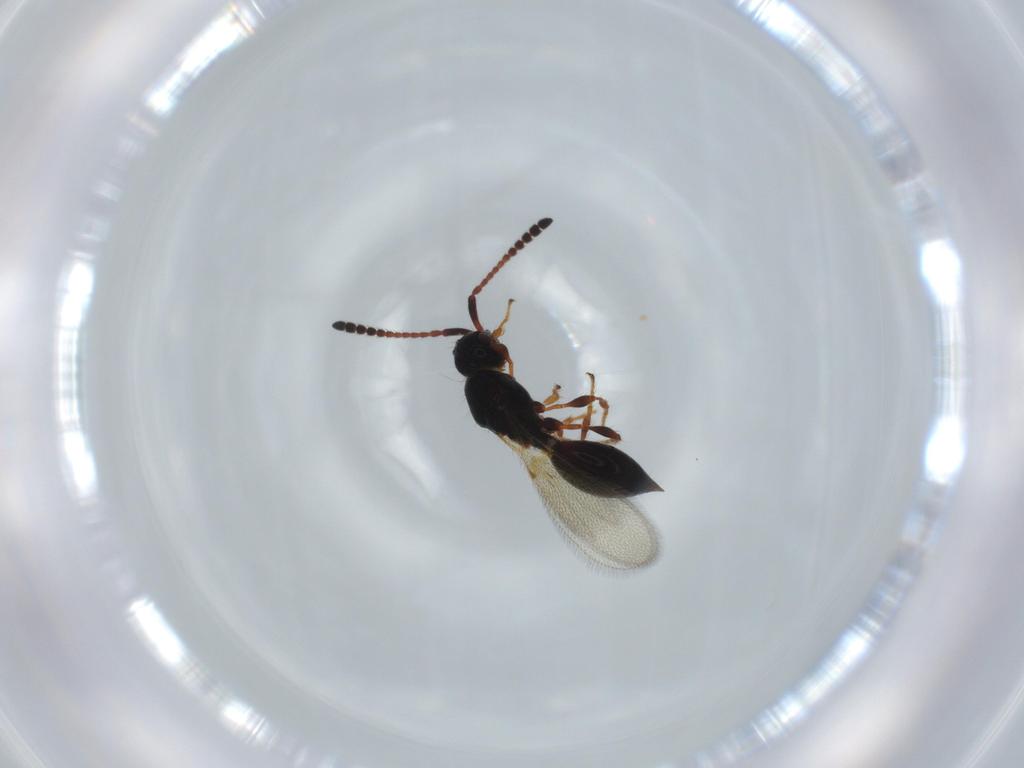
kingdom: Animalia
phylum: Arthropoda
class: Insecta
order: Hymenoptera
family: Diapriidae
